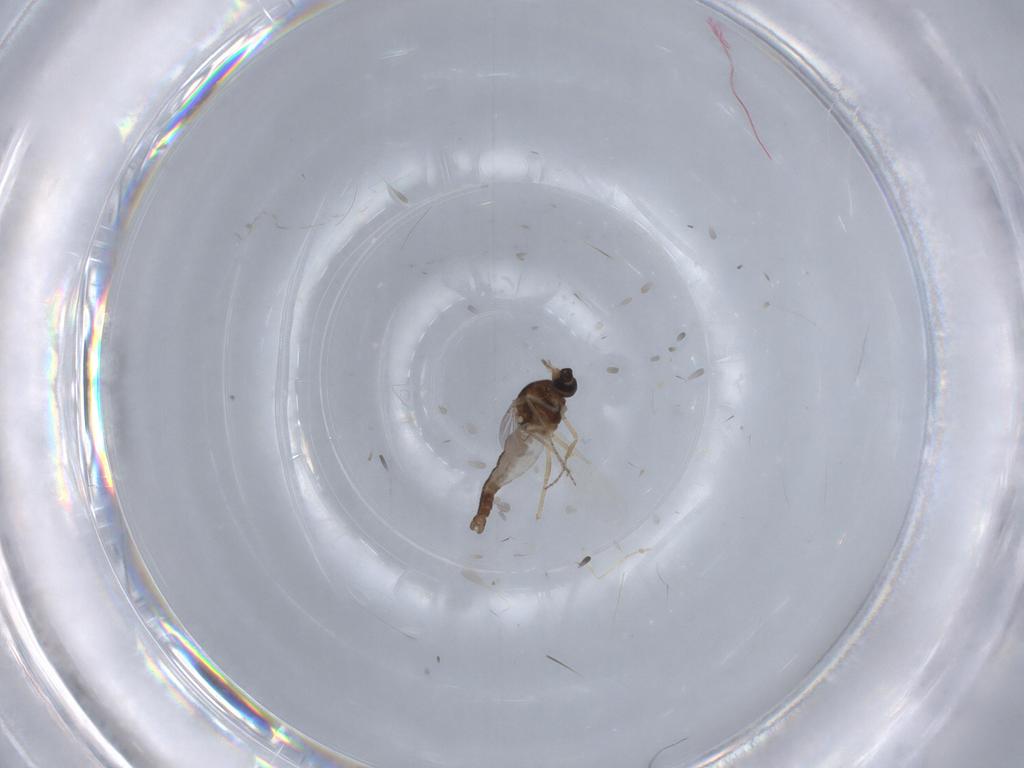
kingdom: Animalia
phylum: Arthropoda
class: Insecta
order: Diptera
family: Ceratopogonidae
